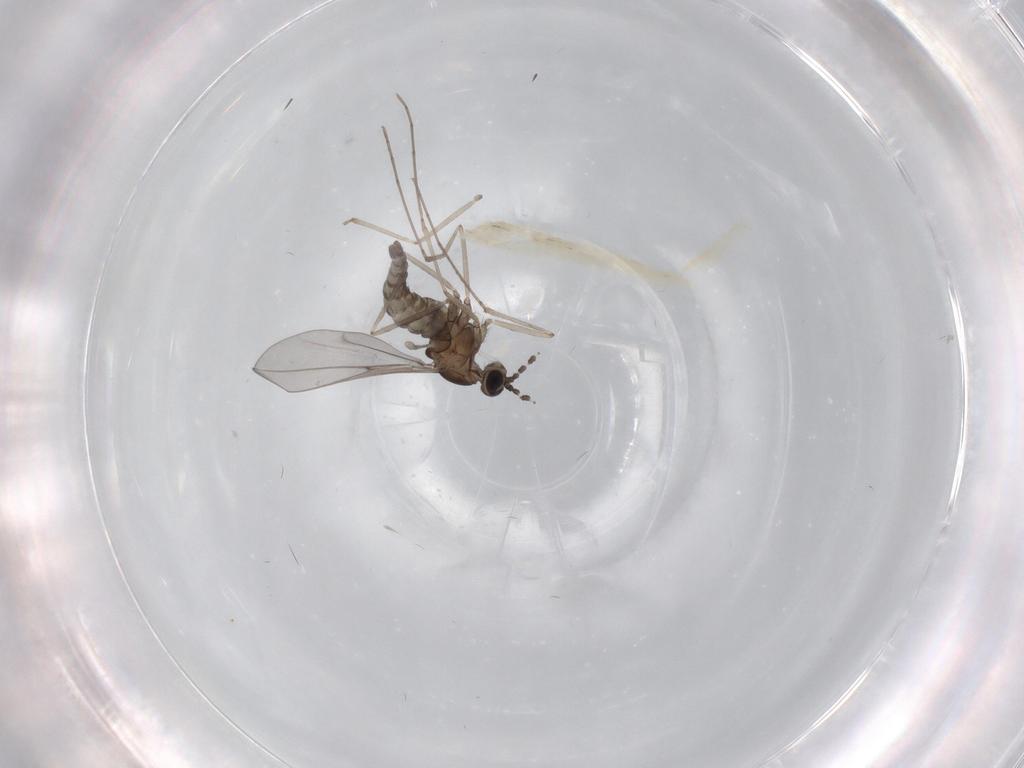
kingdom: Animalia
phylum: Arthropoda
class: Insecta
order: Diptera
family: Cecidomyiidae
